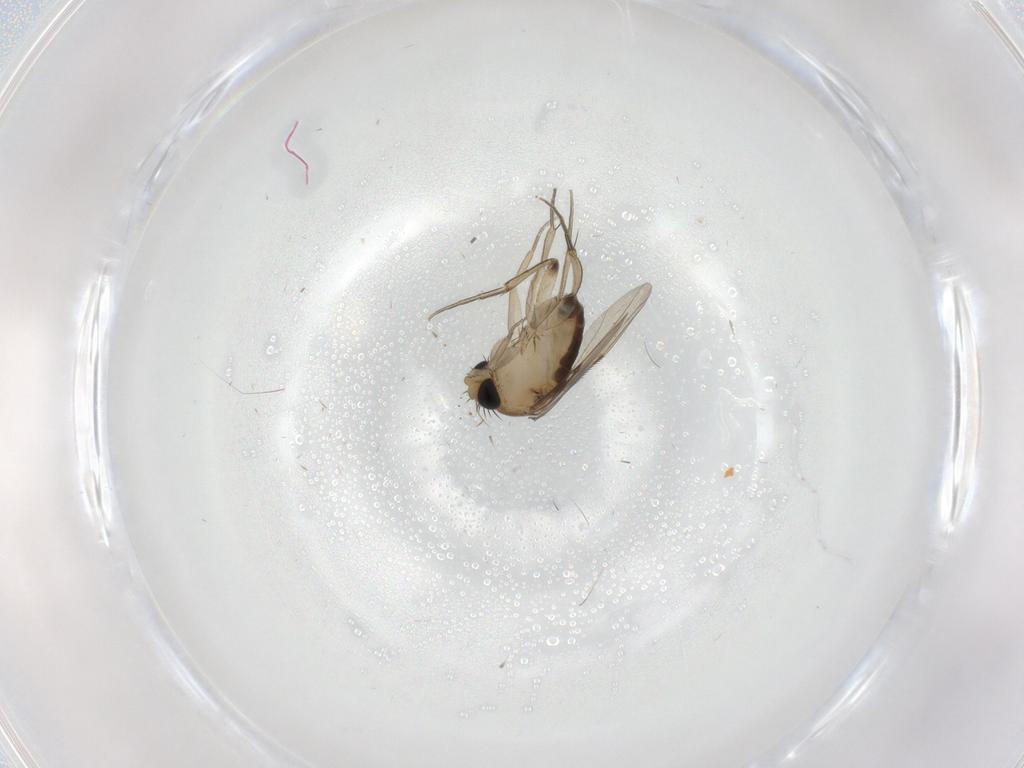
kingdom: Animalia
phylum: Arthropoda
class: Insecta
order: Diptera
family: Phoridae
